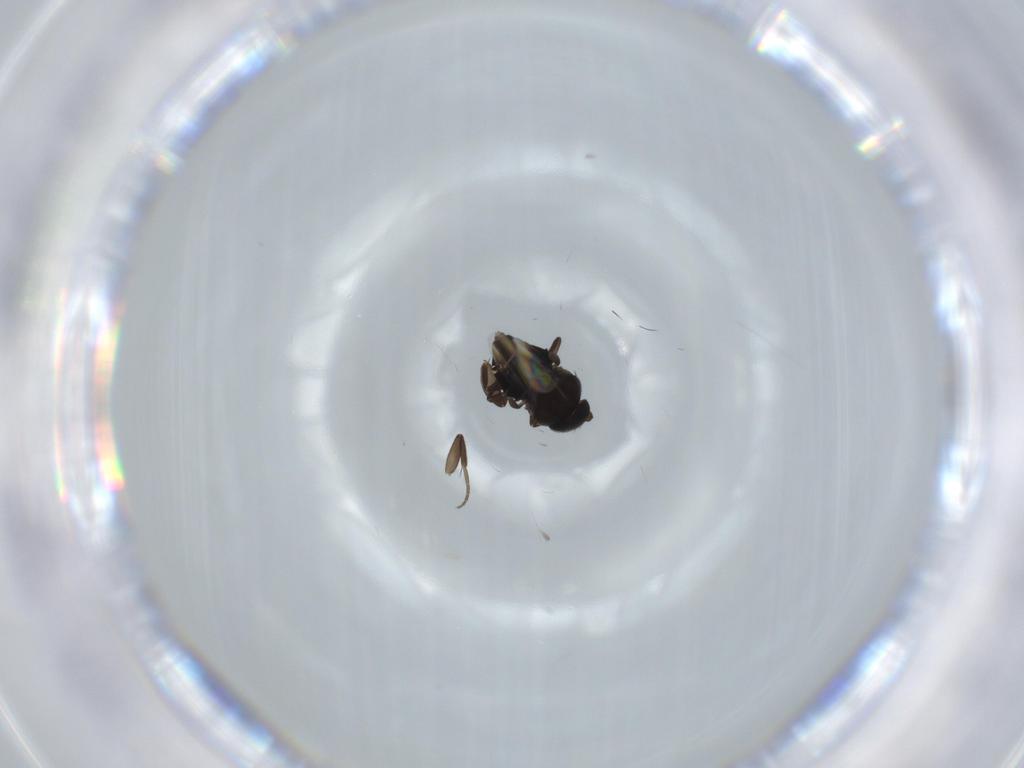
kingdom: Animalia
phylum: Arthropoda
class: Insecta
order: Diptera
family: Phoridae
